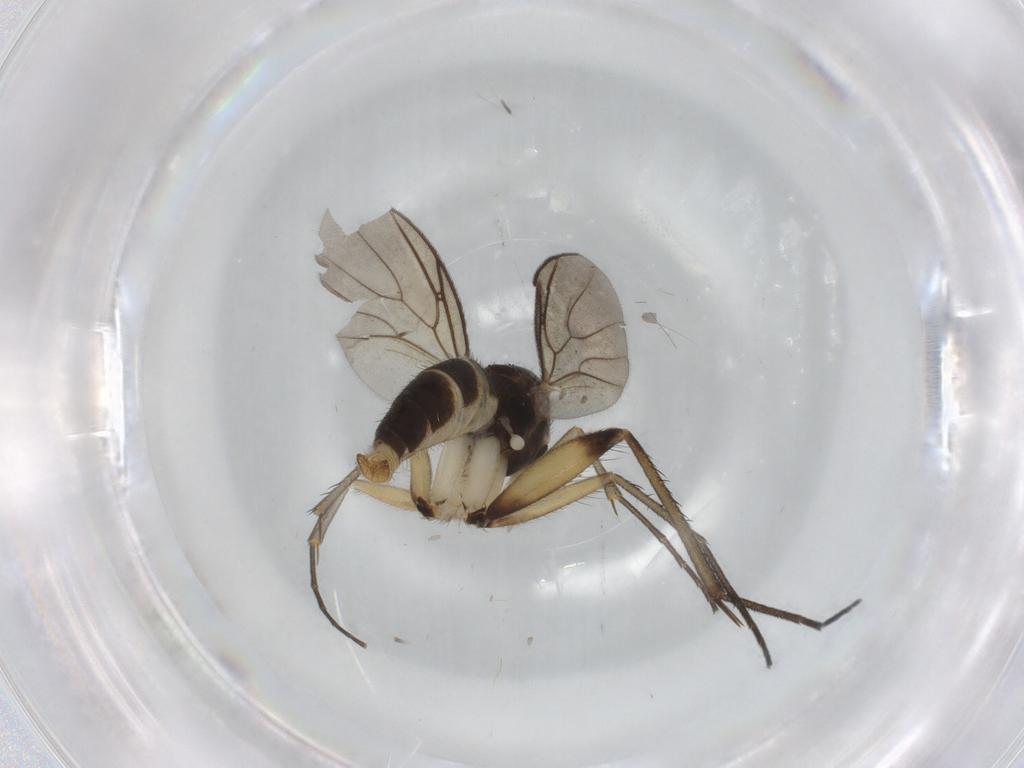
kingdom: Animalia
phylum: Arthropoda
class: Insecta
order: Diptera
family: Mycetophilidae
